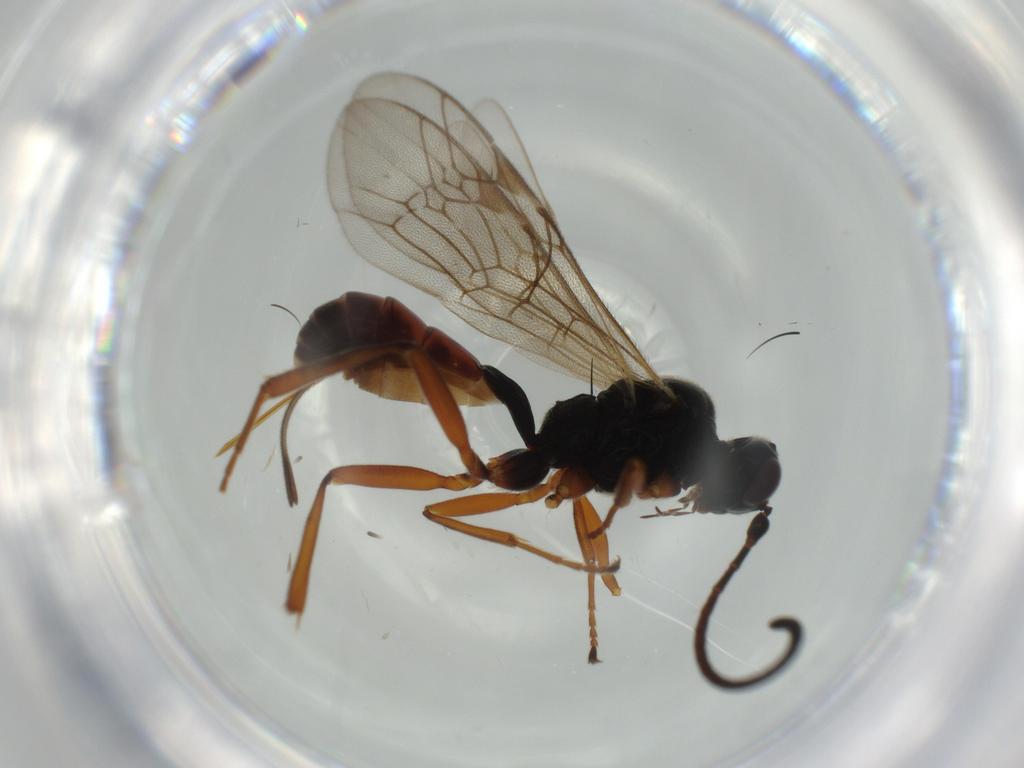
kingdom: Animalia
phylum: Arthropoda
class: Insecta
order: Hymenoptera
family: Ichneumonidae
